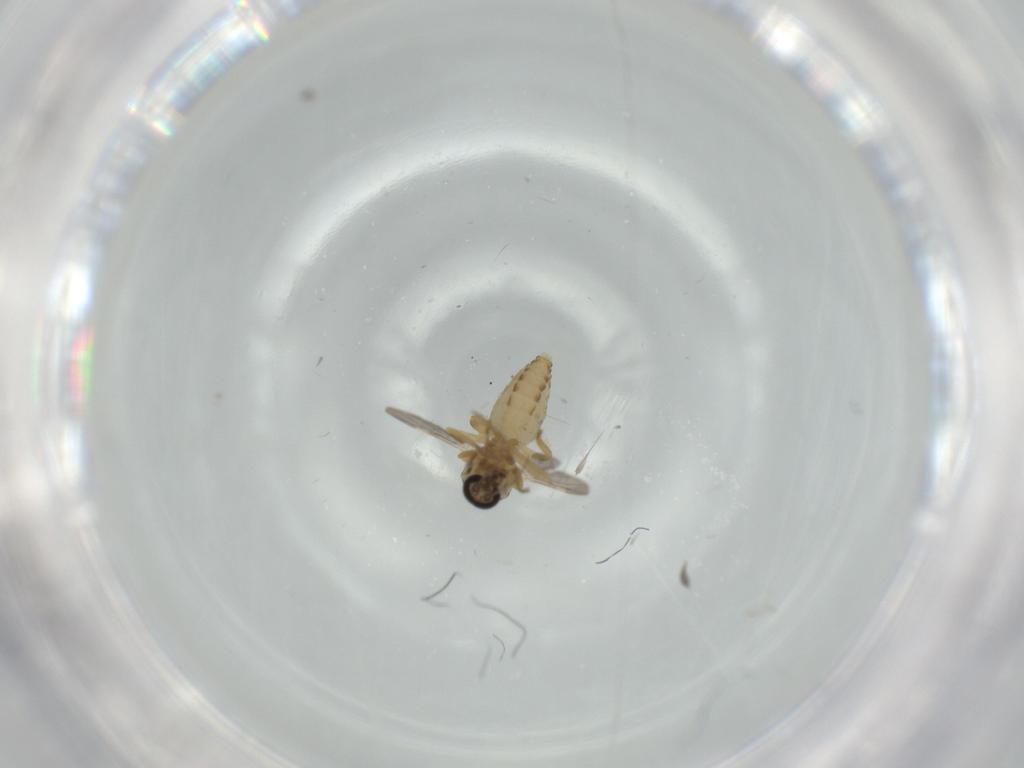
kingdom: Animalia
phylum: Arthropoda
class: Insecta
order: Diptera
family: Ceratopogonidae
